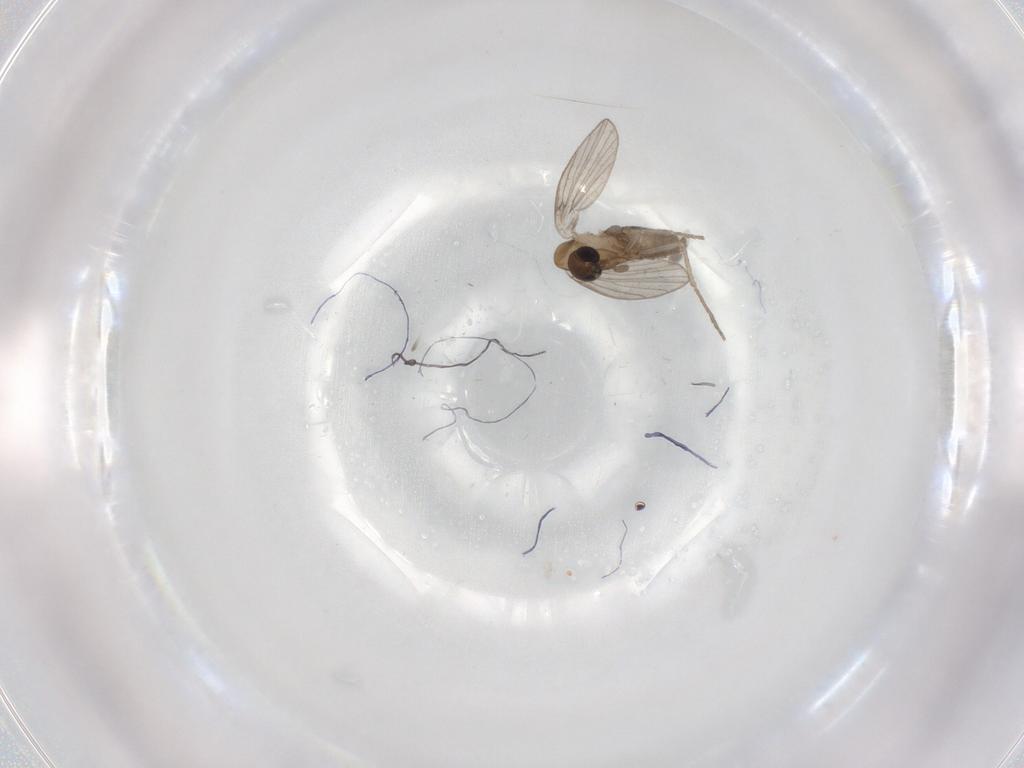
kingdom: Animalia
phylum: Arthropoda
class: Insecta
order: Diptera
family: Psychodidae
